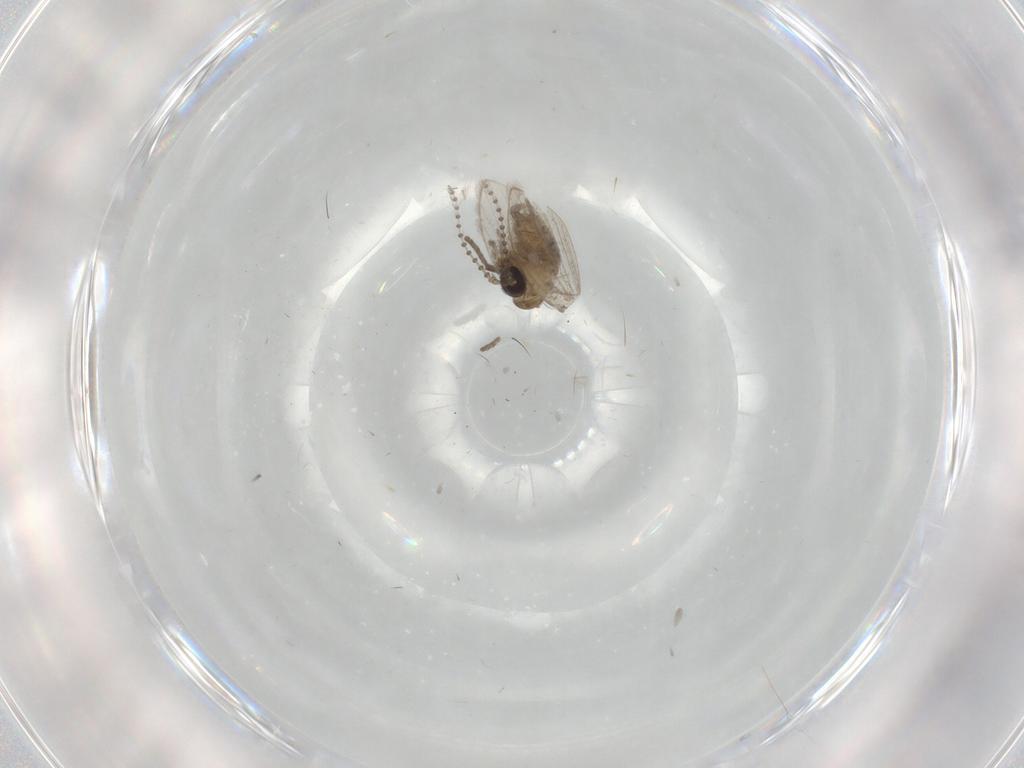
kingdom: Animalia
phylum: Arthropoda
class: Insecta
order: Diptera
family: Psychodidae
